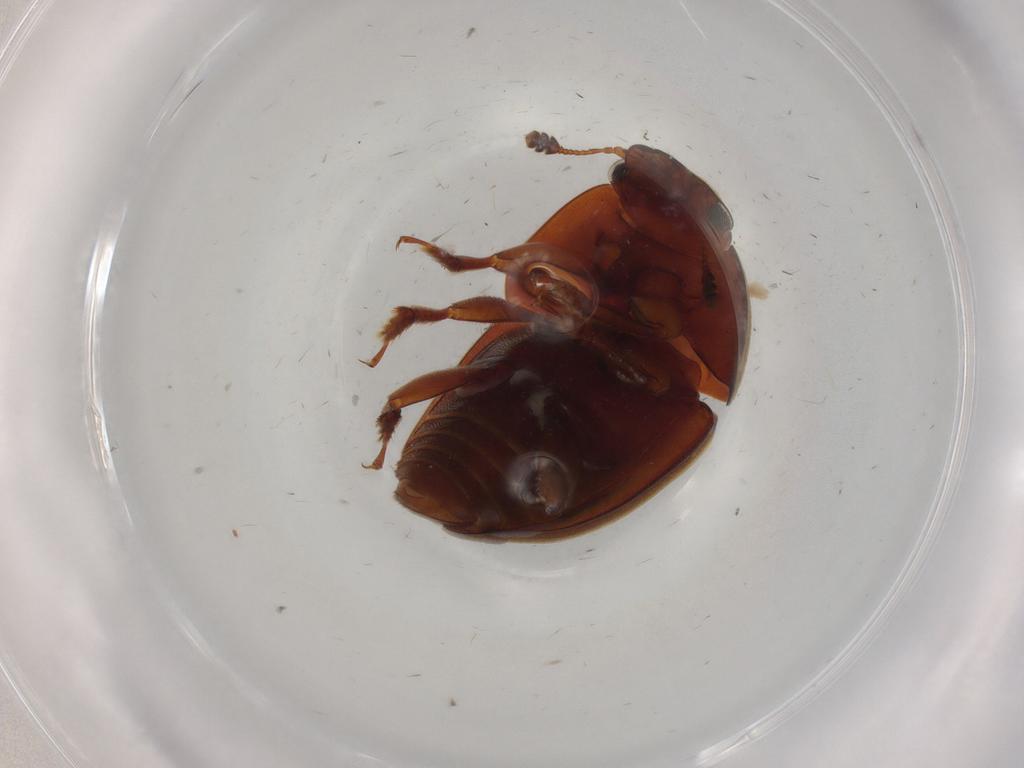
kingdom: Animalia
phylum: Arthropoda
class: Insecta
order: Coleoptera
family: Nitidulidae
